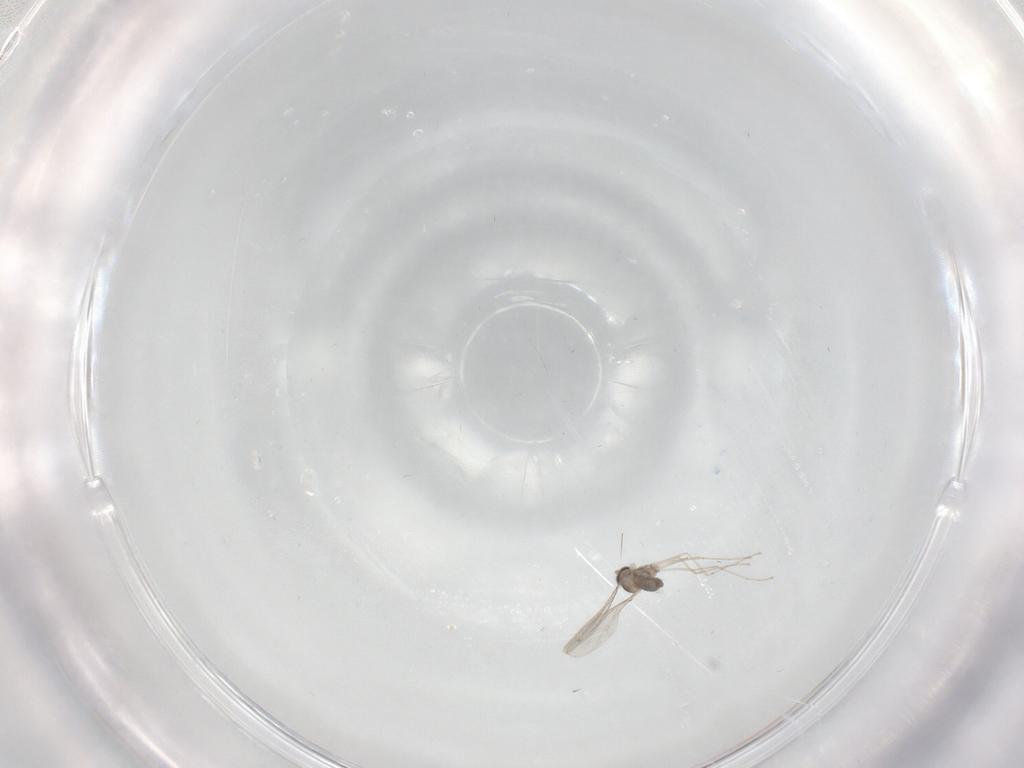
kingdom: Animalia
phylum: Arthropoda
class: Insecta
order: Diptera
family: Cecidomyiidae
